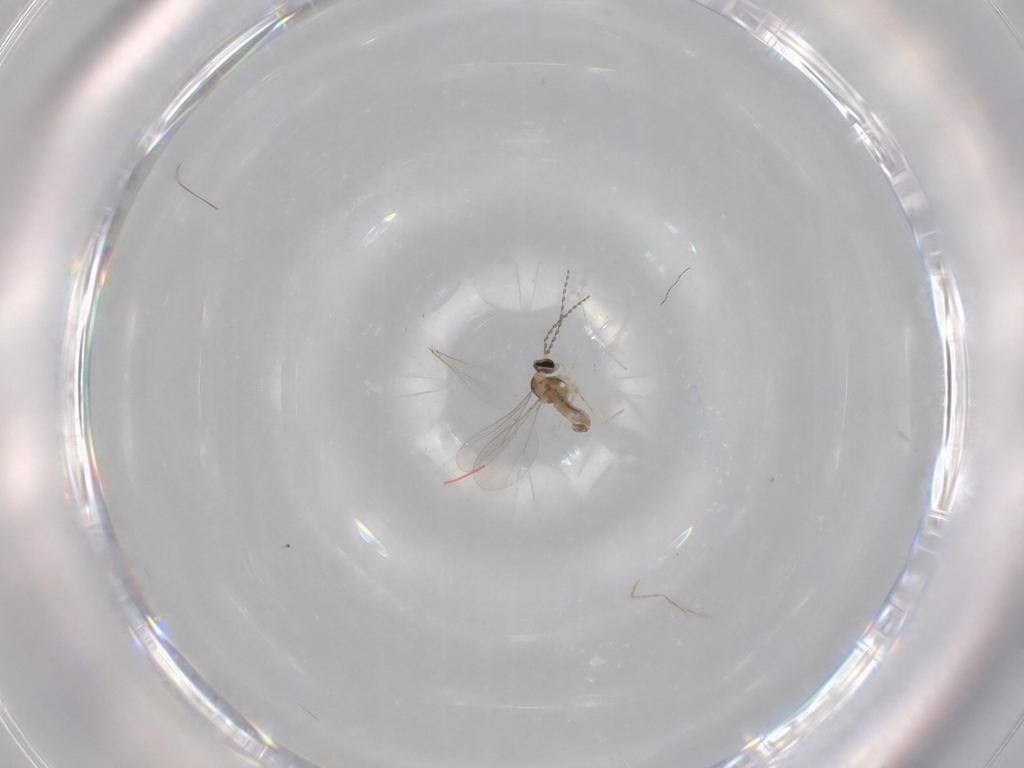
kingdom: Animalia
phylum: Arthropoda
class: Insecta
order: Diptera
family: Cecidomyiidae
